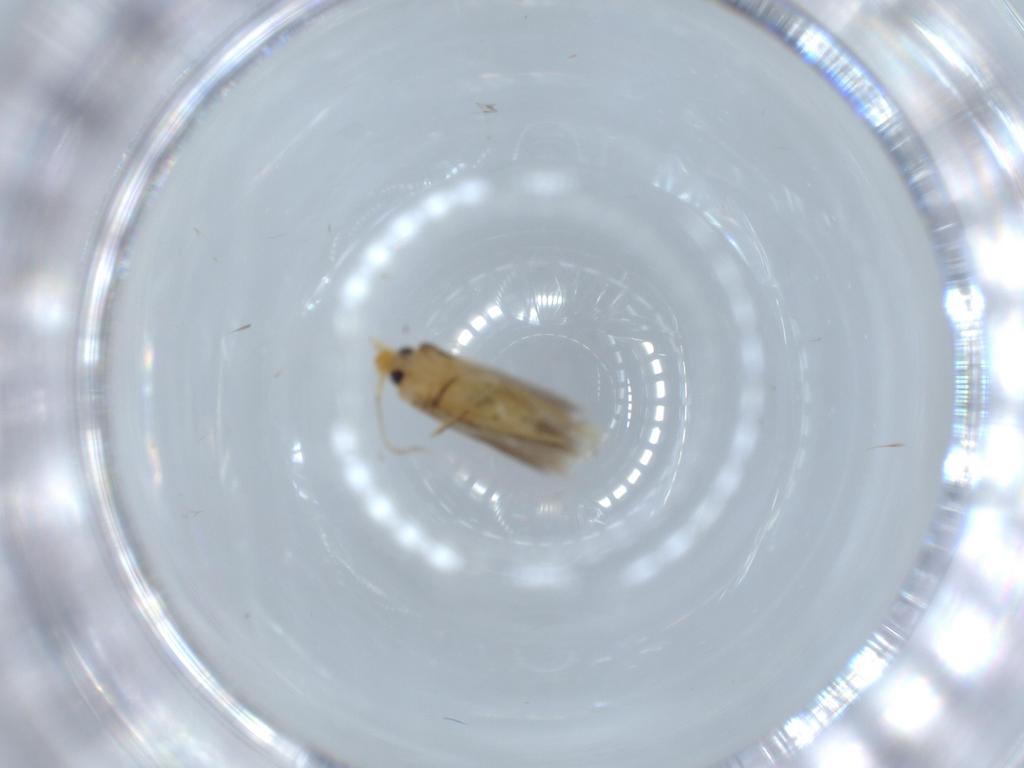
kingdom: Animalia
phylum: Arthropoda
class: Insecta
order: Lepidoptera
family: Nepticulidae
